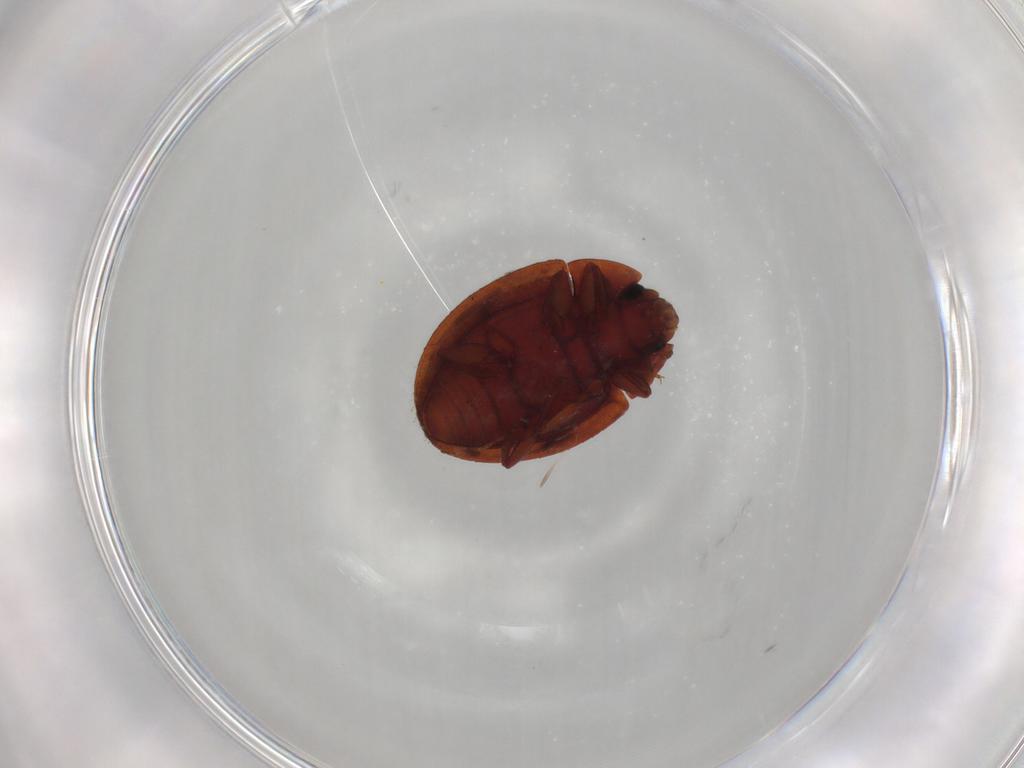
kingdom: Animalia
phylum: Arthropoda
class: Insecta
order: Coleoptera
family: Euxestidae
